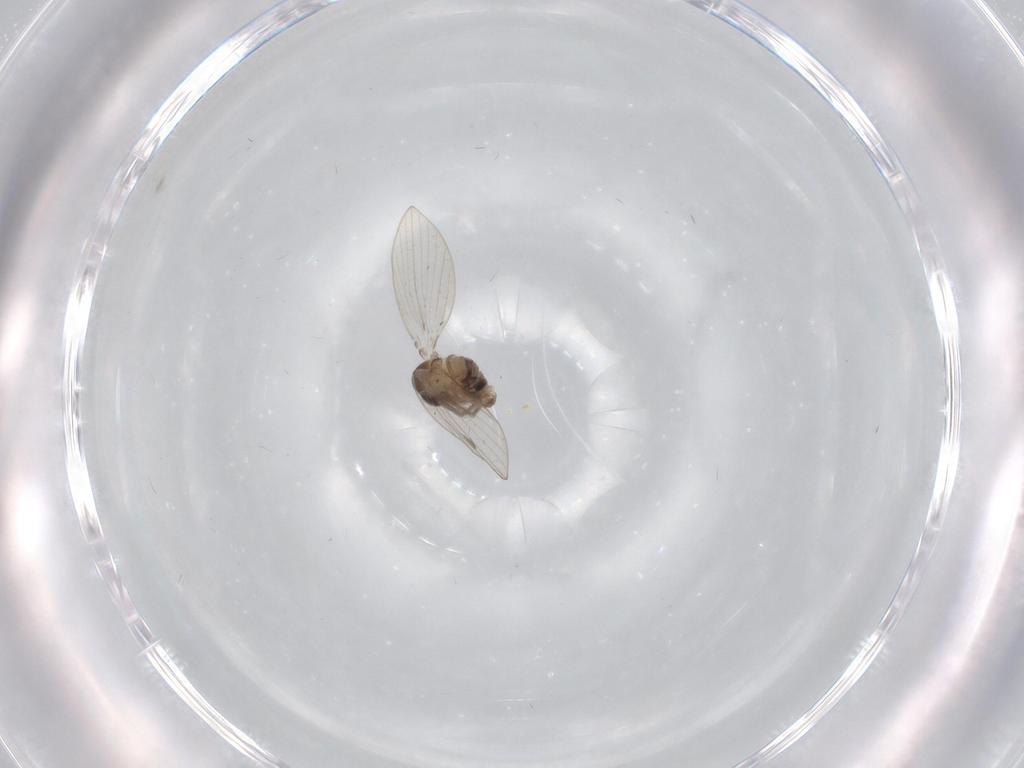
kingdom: Animalia
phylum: Arthropoda
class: Insecta
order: Diptera
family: Psychodidae
